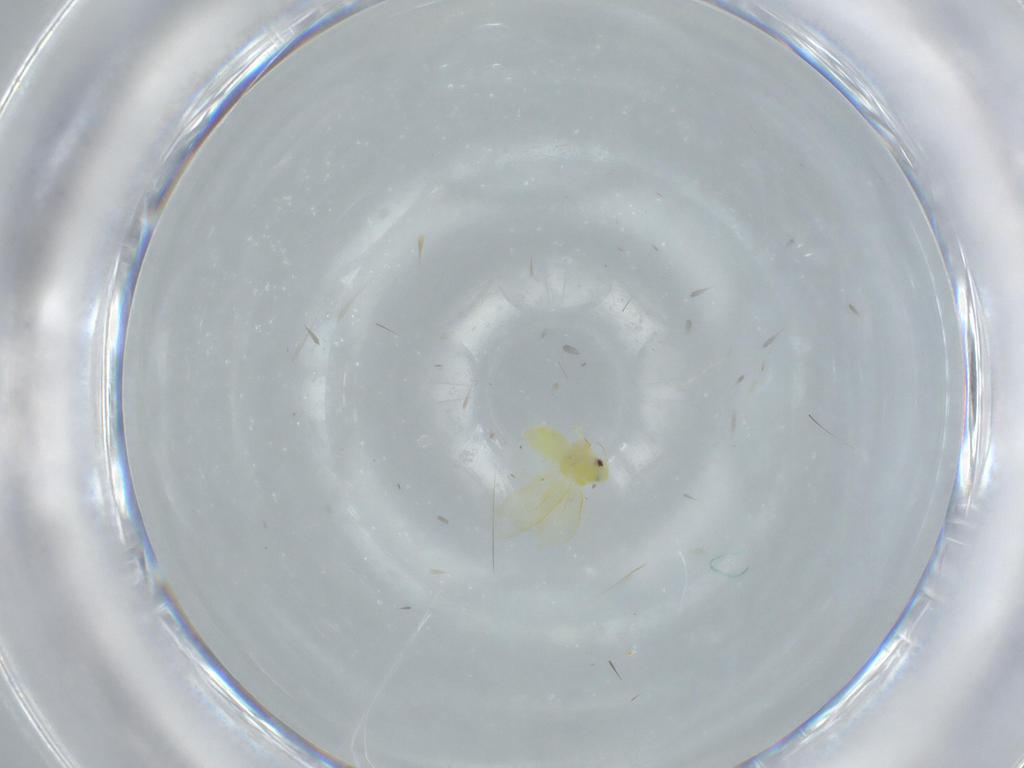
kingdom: Animalia
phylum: Arthropoda
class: Insecta
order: Hemiptera
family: Aleyrodidae
